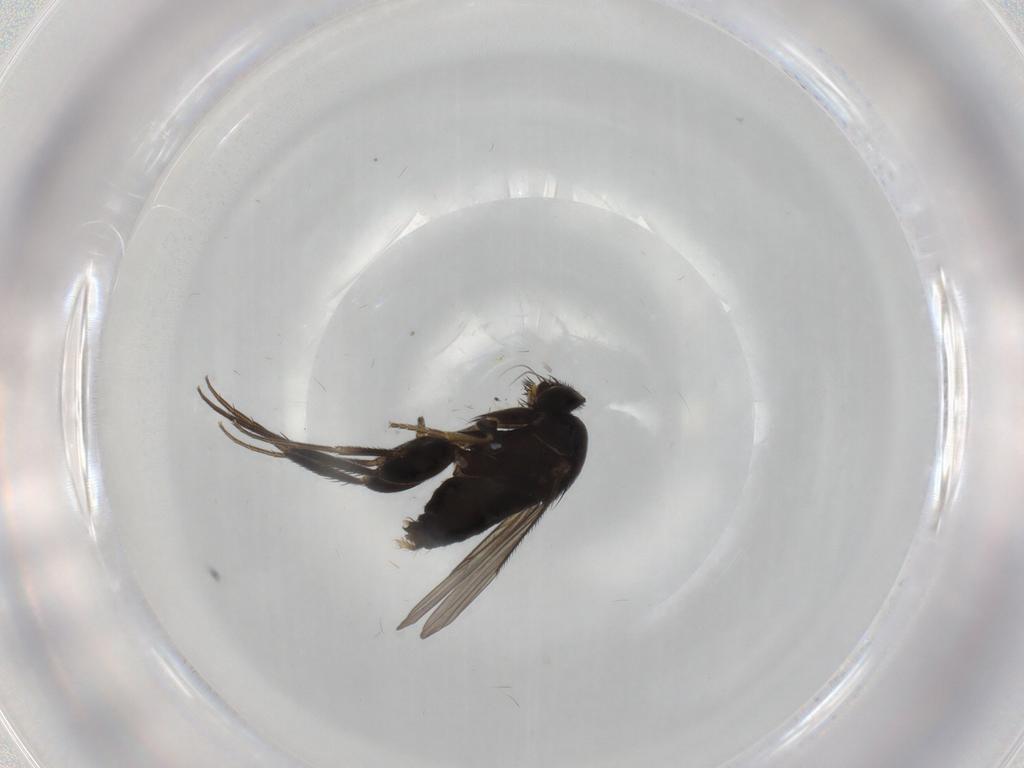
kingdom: Animalia
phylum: Arthropoda
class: Insecta
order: Diptera
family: Phoridae
